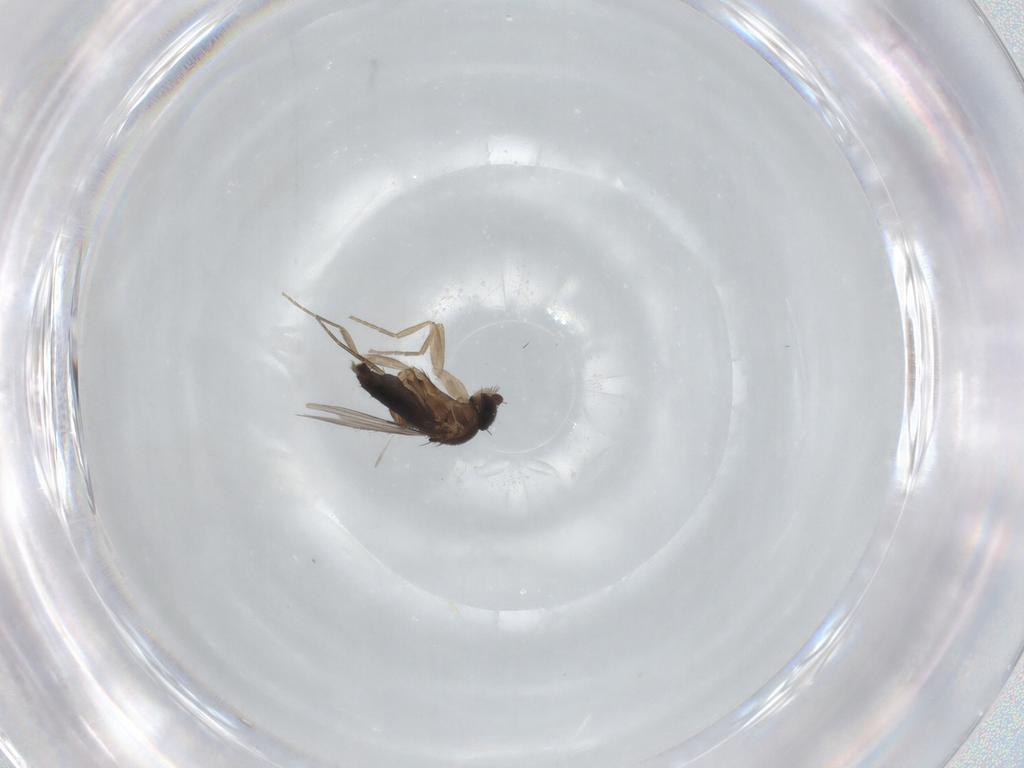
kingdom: Animalia
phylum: Arthropoda
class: Insecta
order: Diptera
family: Phoridae
